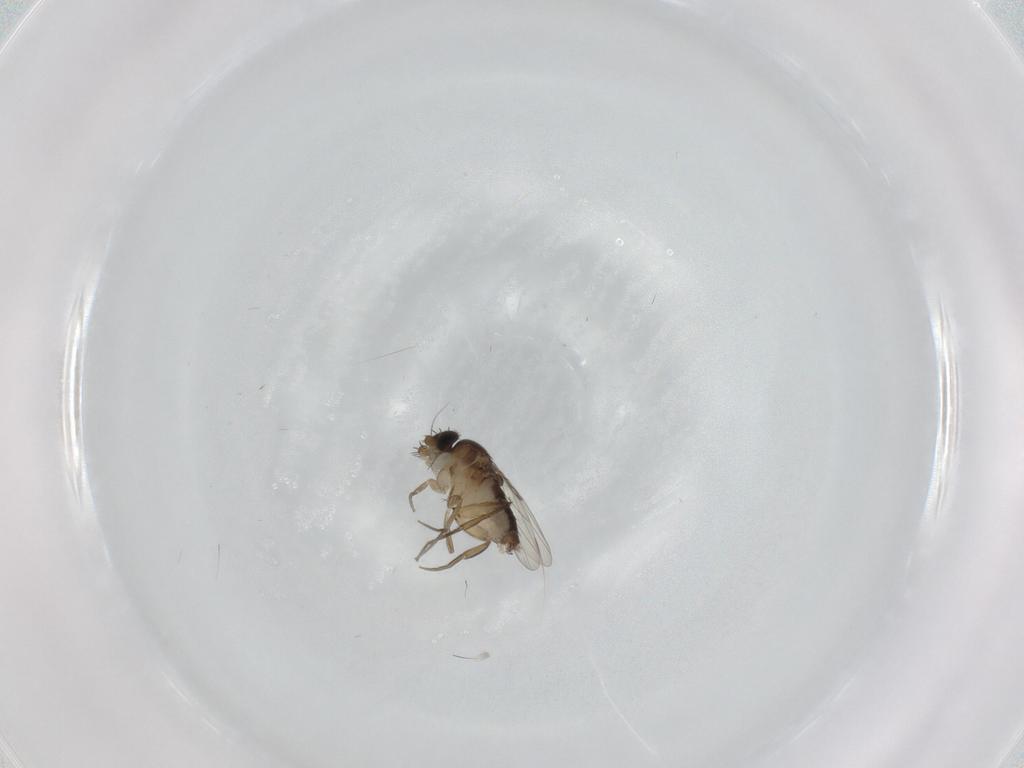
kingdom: Animalia
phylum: Arthropoda
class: Insecta
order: Diptera
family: Phoridae
